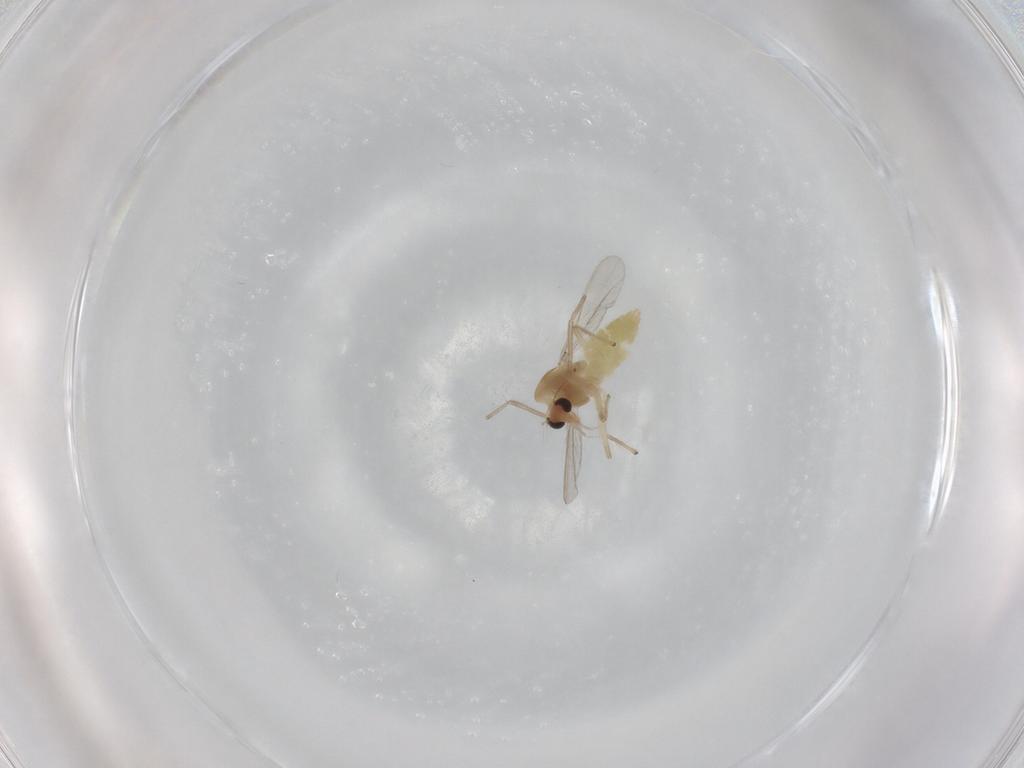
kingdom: Animalia
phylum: Arthropoda
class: Insecta
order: Diptera
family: Chironomidae
